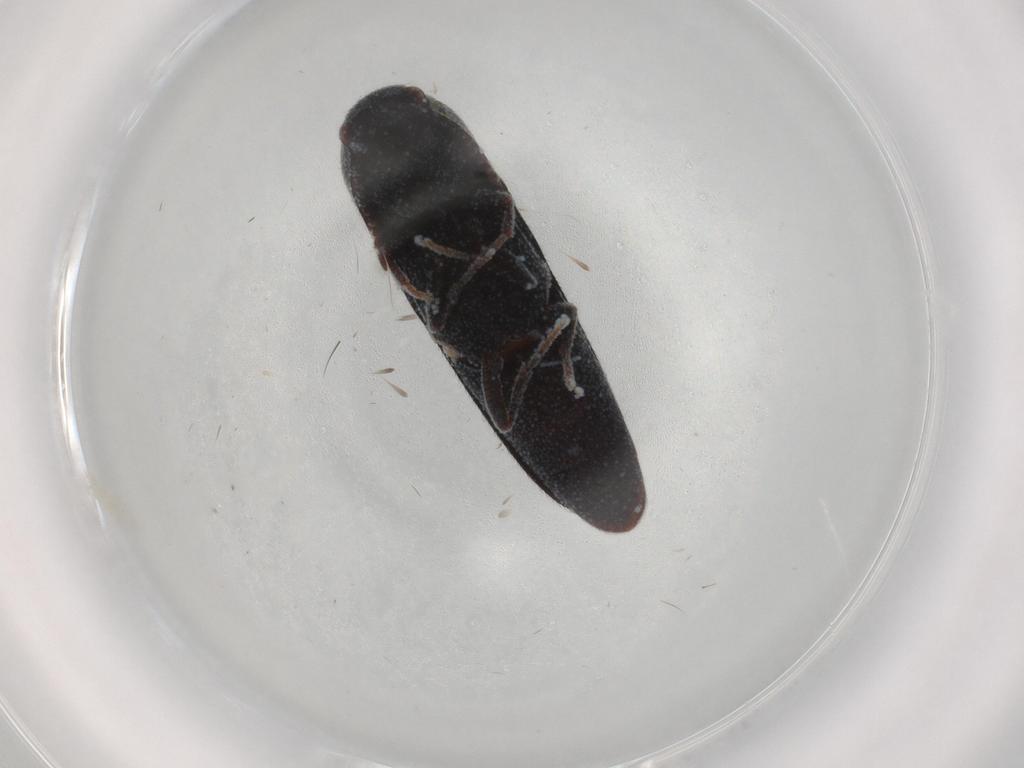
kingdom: Animalia
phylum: Arthropoda
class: Insecta
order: Coleoptera
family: Eucnemidae
